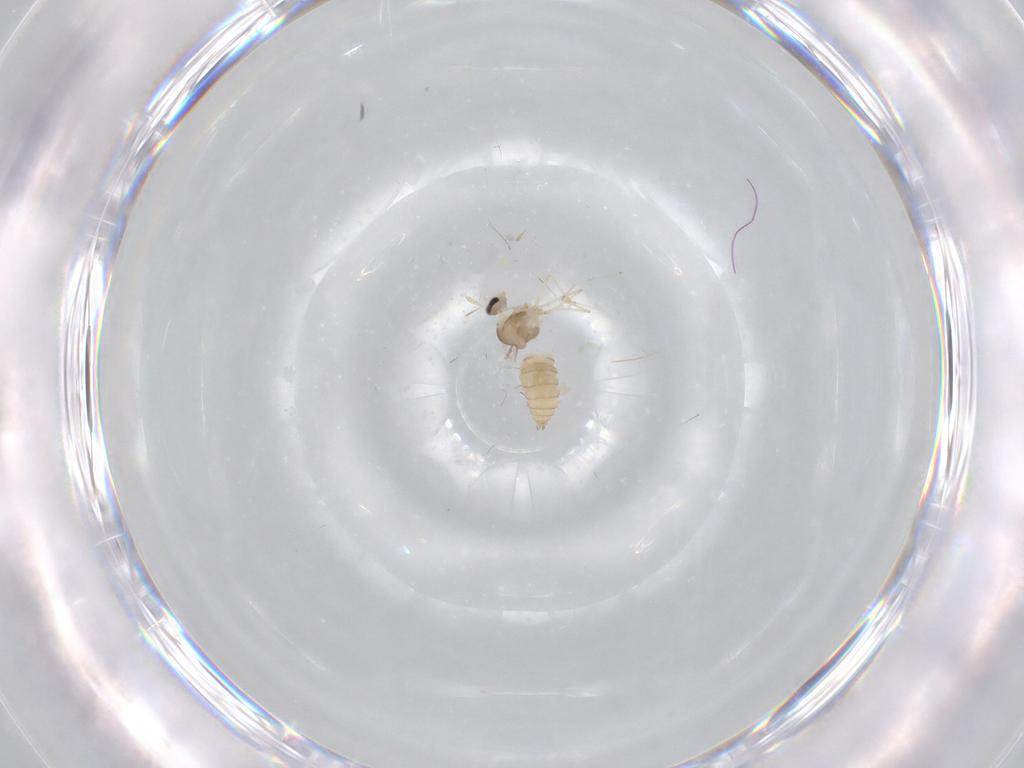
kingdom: Animalia
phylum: Arthropoda
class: Insecta
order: Diptera
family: Cecidomyiidae
